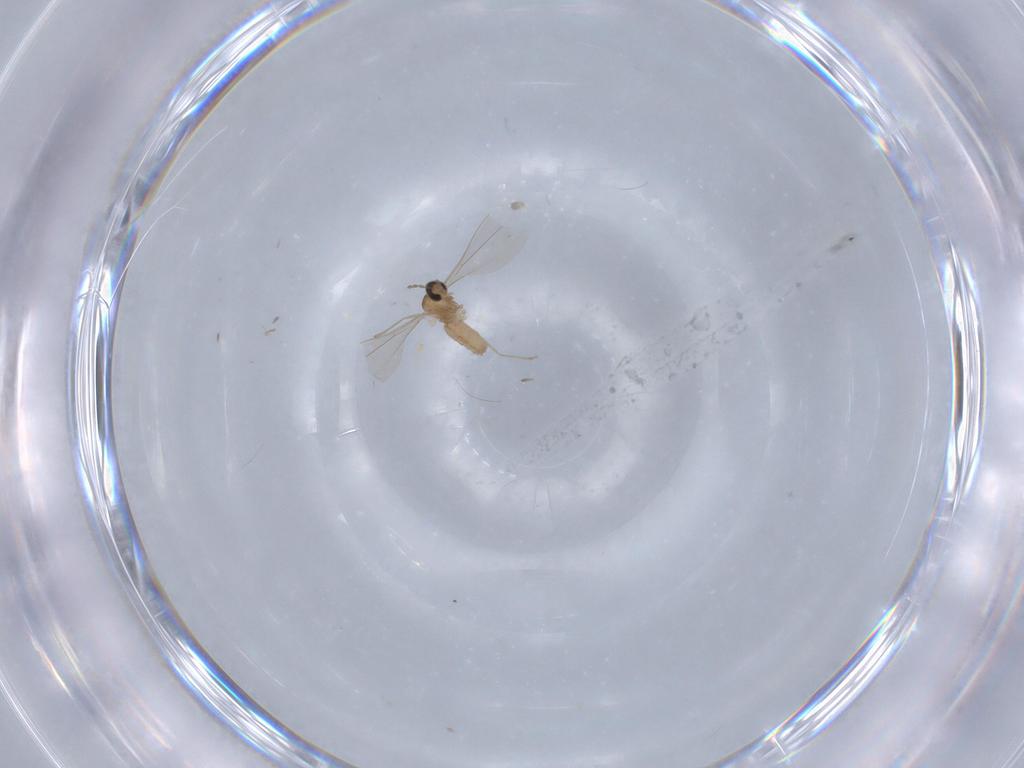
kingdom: Animalia
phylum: Arthropoda
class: Insecta
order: Diptera
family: Cecidomyiidae
